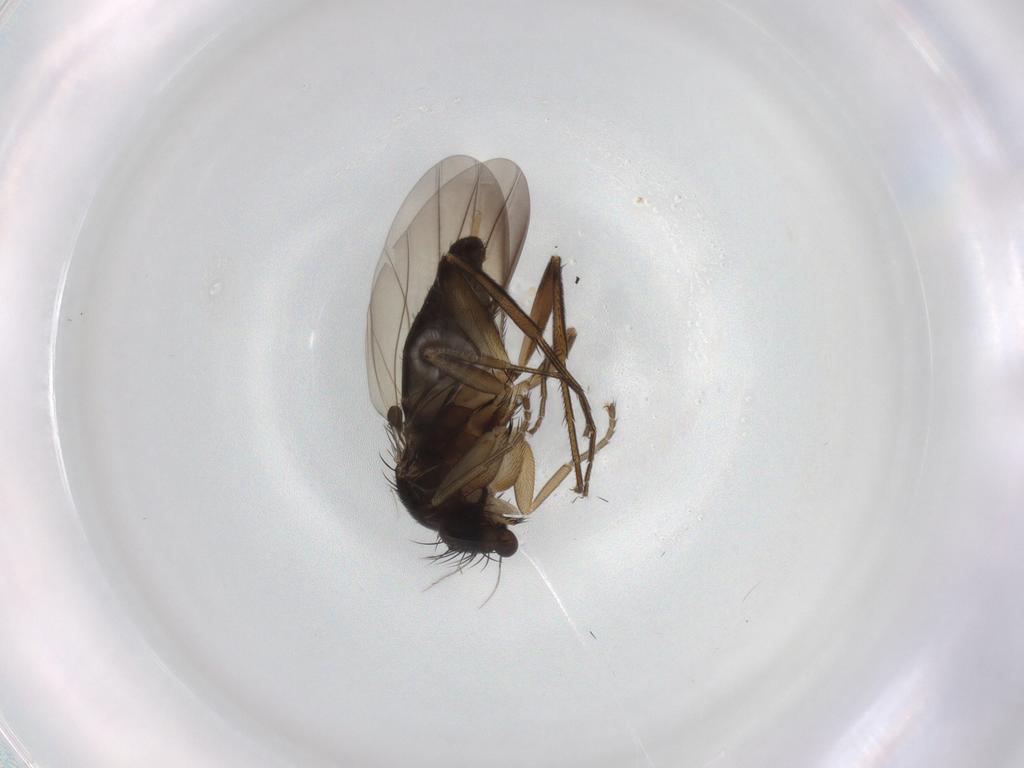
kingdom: Animalia
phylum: Arthropoda
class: Insecta
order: Diptera
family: Phoridae
